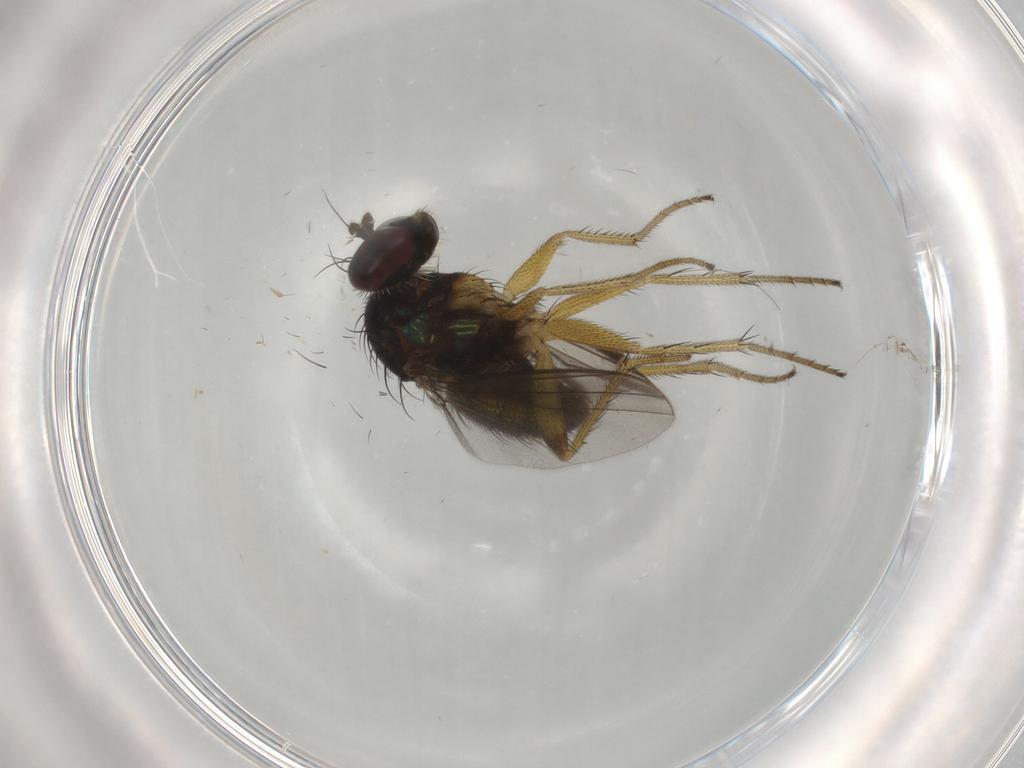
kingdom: Animalia
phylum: Arthropoda
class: Insecta
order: Diptera
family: Dolichopodidae
